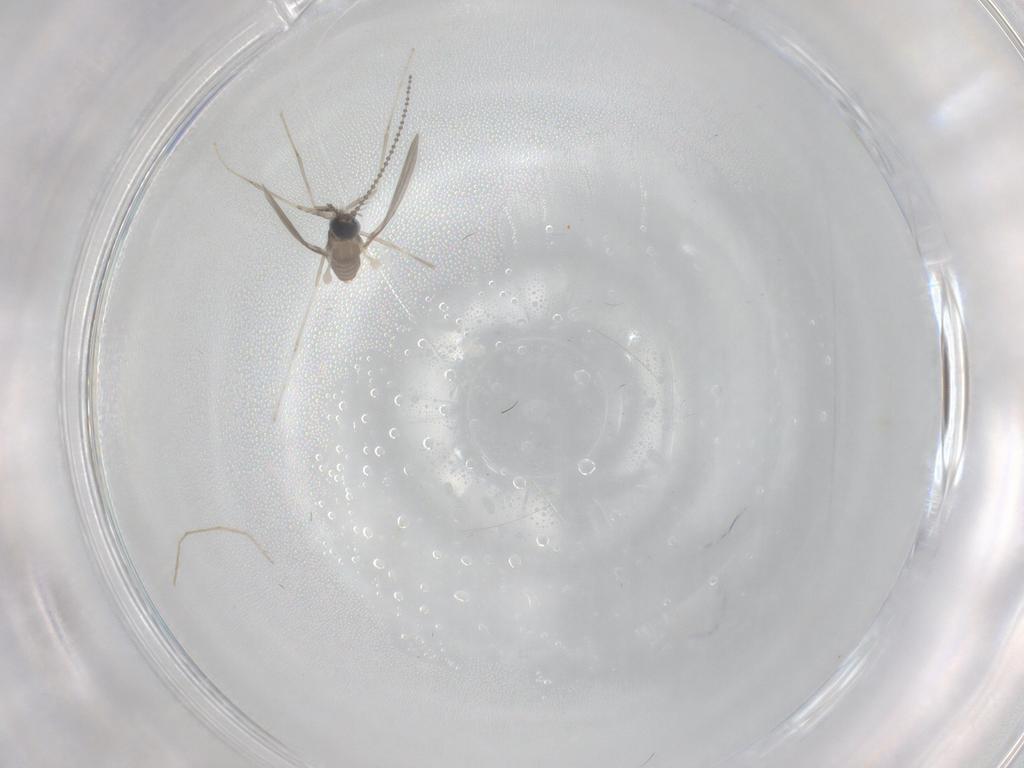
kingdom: Animalia
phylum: Arthropoda
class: Insecta
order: Diptera
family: Cecidomyiidae
